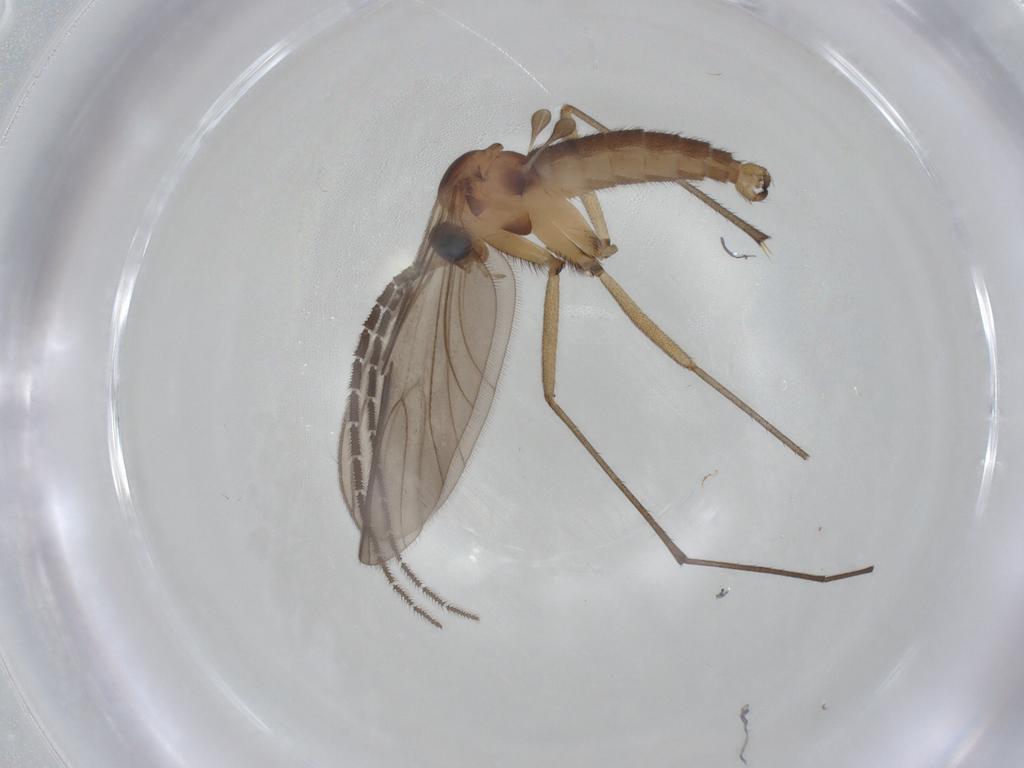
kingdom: Animalia
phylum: Arthropoda
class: Insecta
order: Diptera
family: Sciaridae
